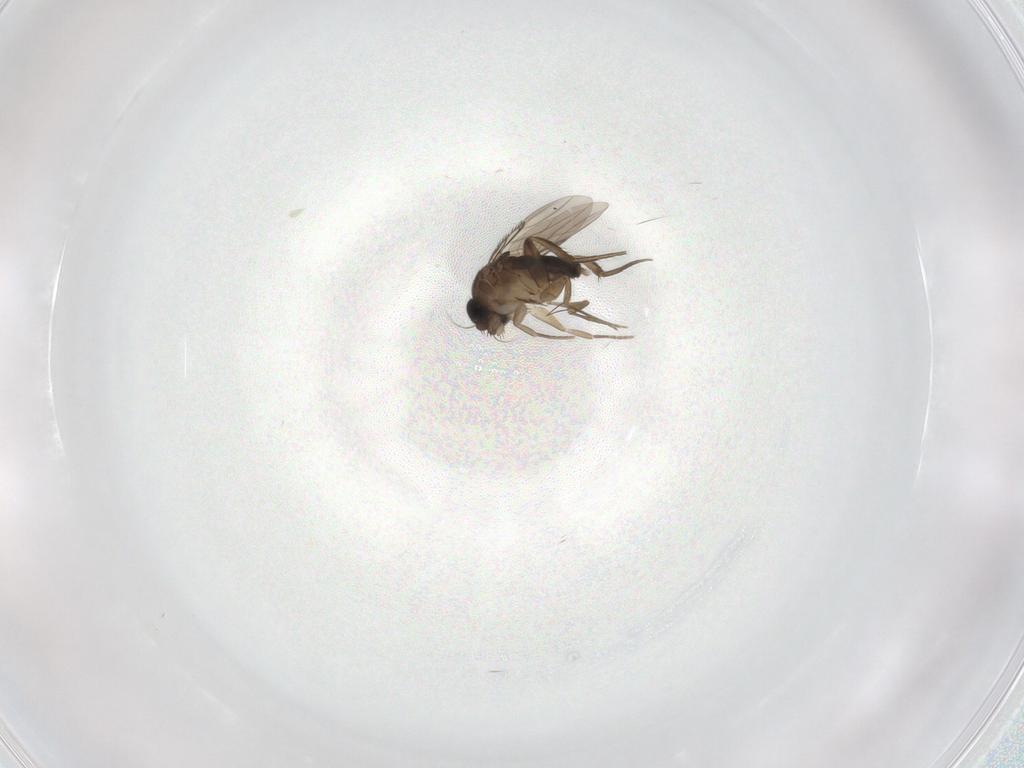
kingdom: Animalia
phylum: Arthropoda
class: Insecta
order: Diptera
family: Phoridae
